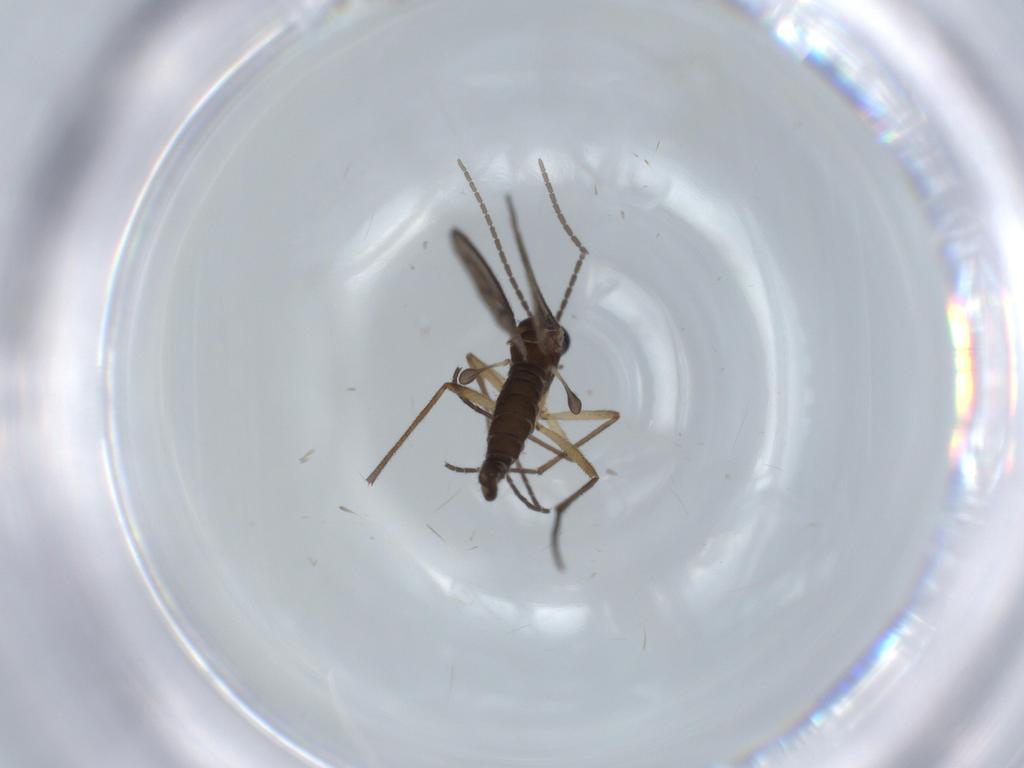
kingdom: Animalia
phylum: Arthropoda
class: Insecta
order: Diptera
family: Sciaridae
